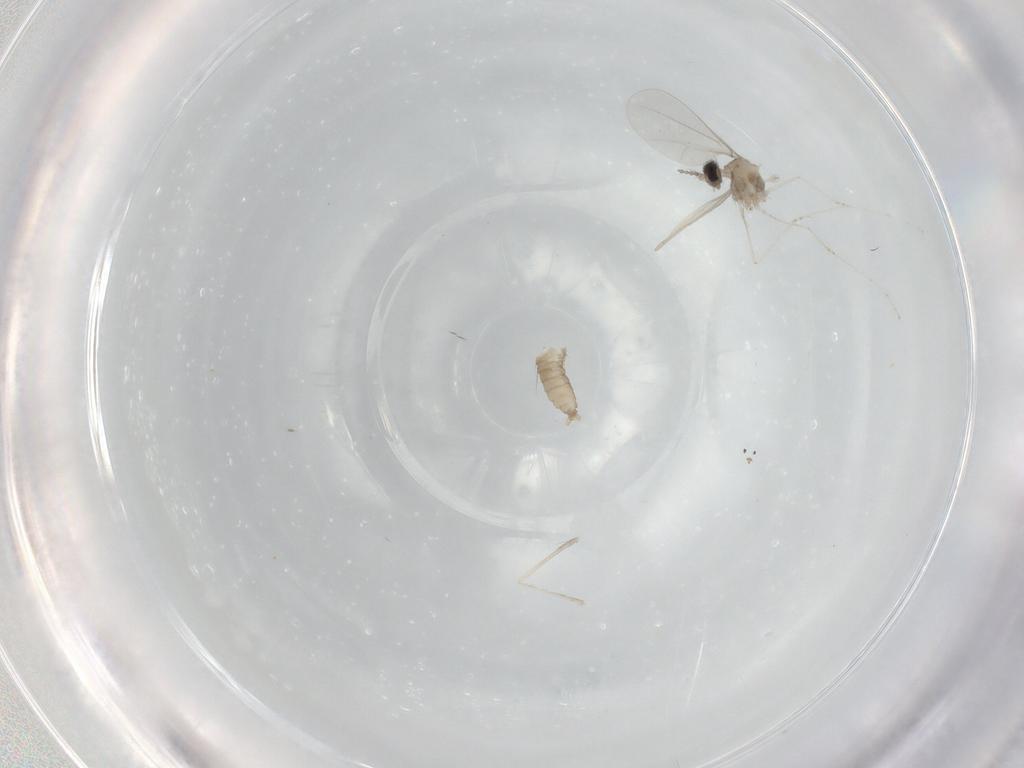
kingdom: Animalia
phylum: Arthropoda
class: Insecta
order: Diptera
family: Cecidomyiidae
